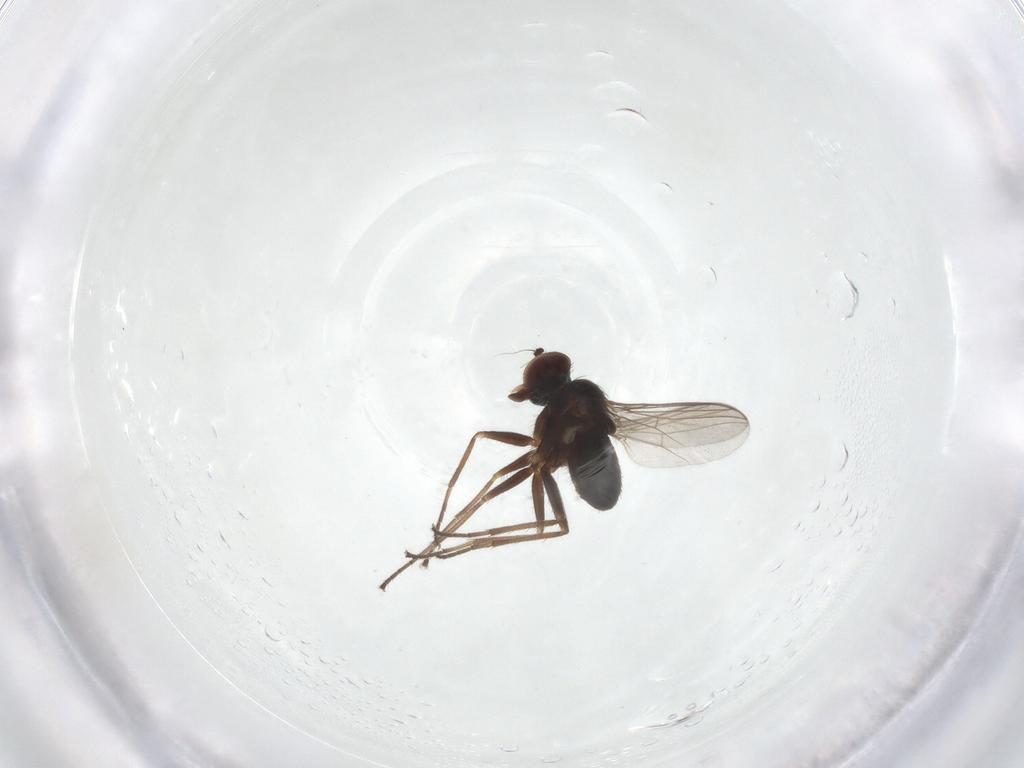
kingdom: Animalia
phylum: Arthropoda
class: Insecta
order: Diptera
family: Dolichopodidae
